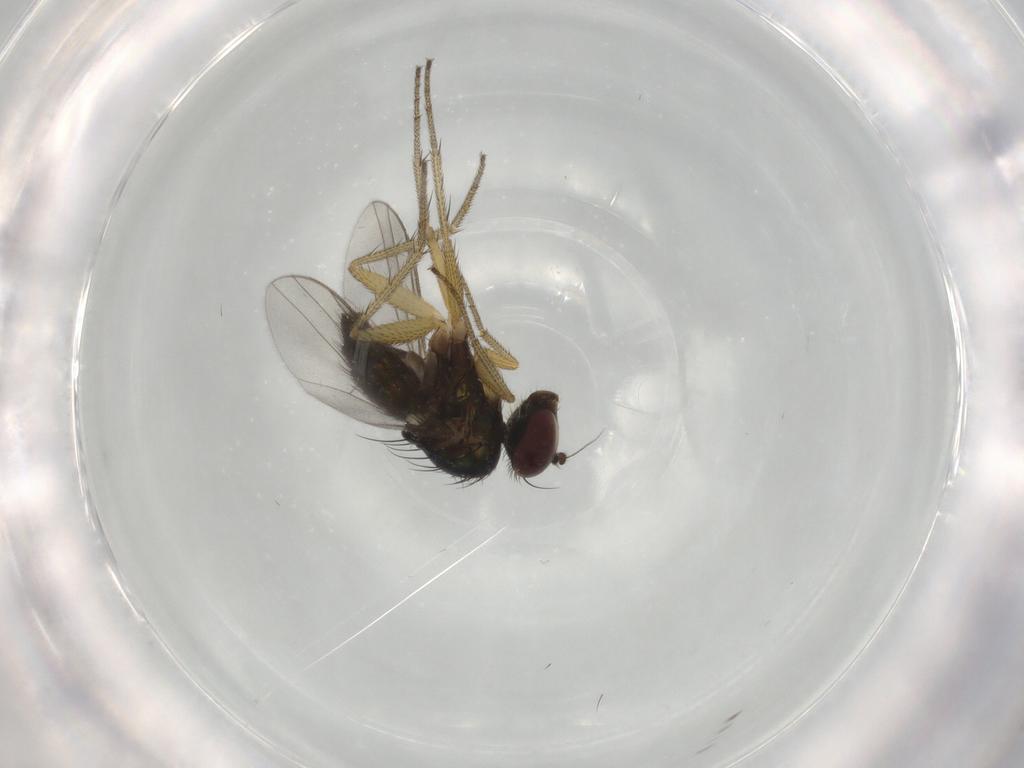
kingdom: Animalia
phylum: Arthropoda
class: Insecta
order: Diptera
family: Dolichopodidae
